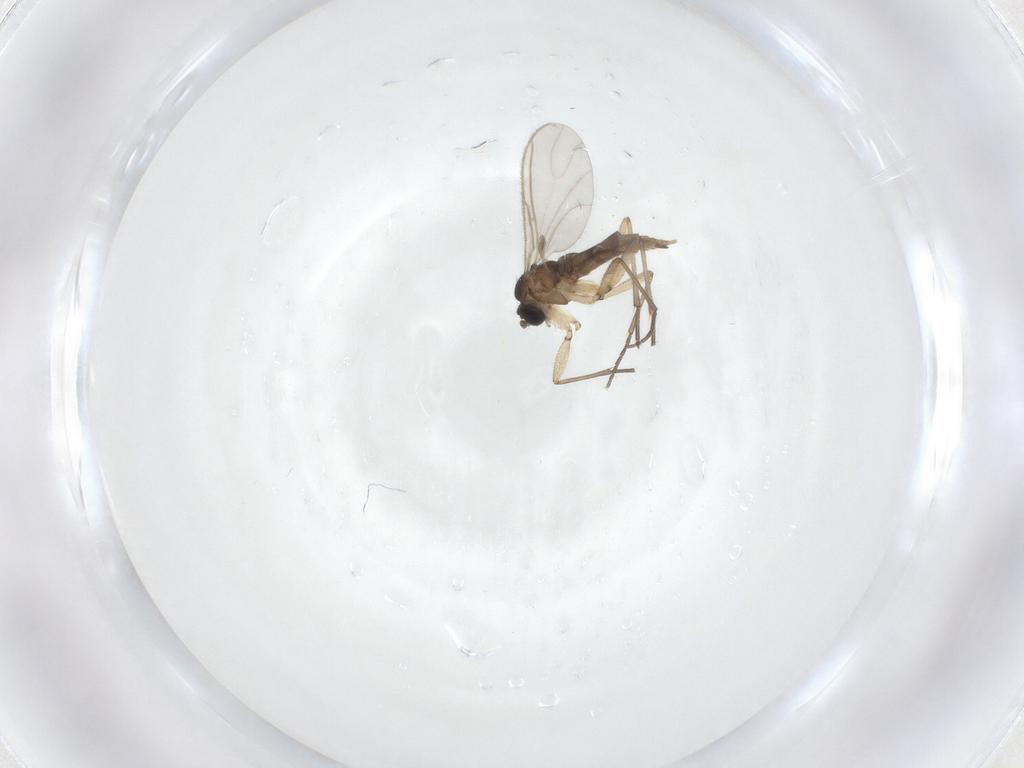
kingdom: Animalia
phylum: Arthropoda
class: Insecta
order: Diptera
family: Sciaridae
